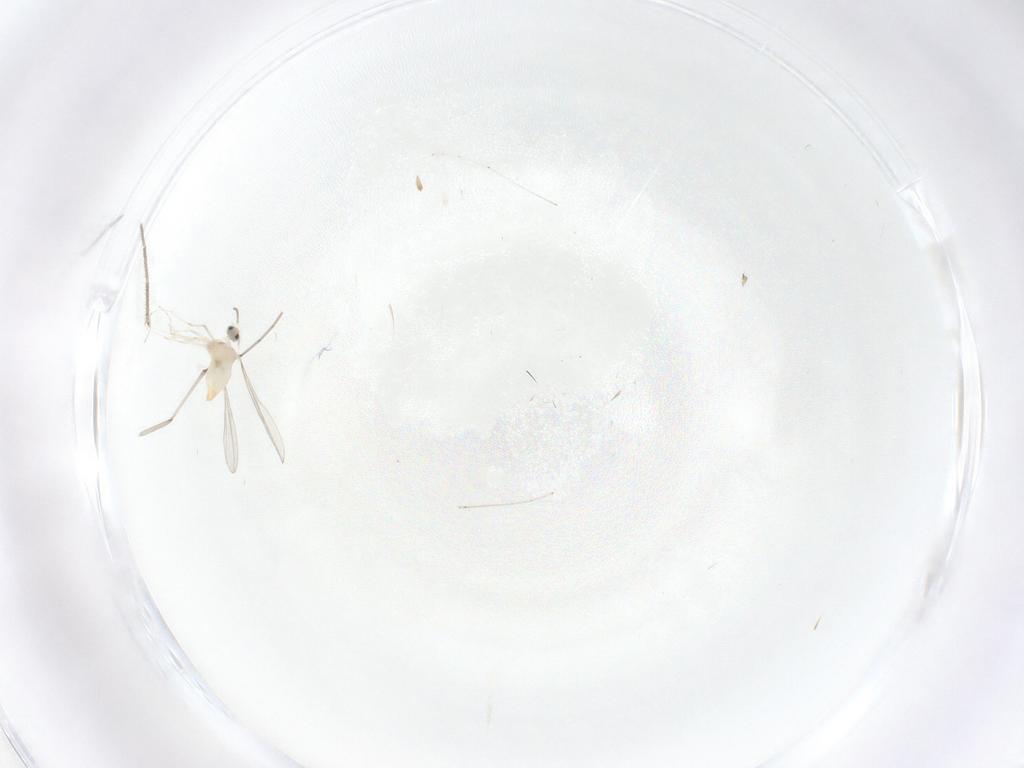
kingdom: Animalia
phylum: Arthropoda
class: Insecta
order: Diptera
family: Cecidomyiidae
